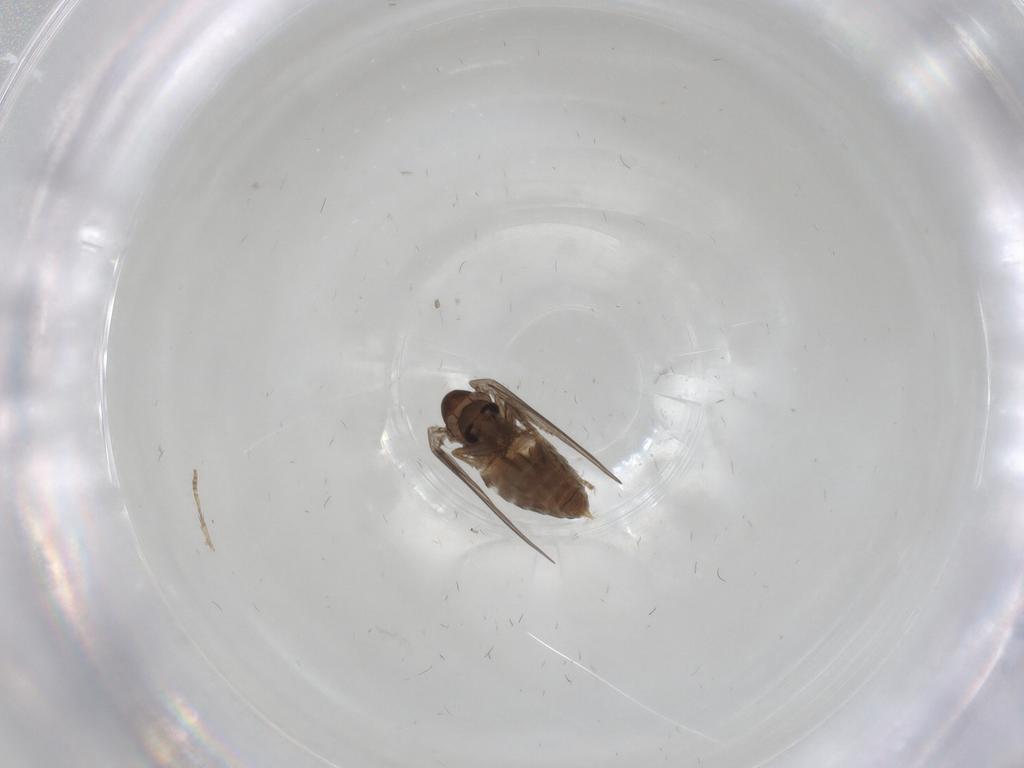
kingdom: Animalia
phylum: Arthropoda
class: Insecta
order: Diptera
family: Psychodidae
